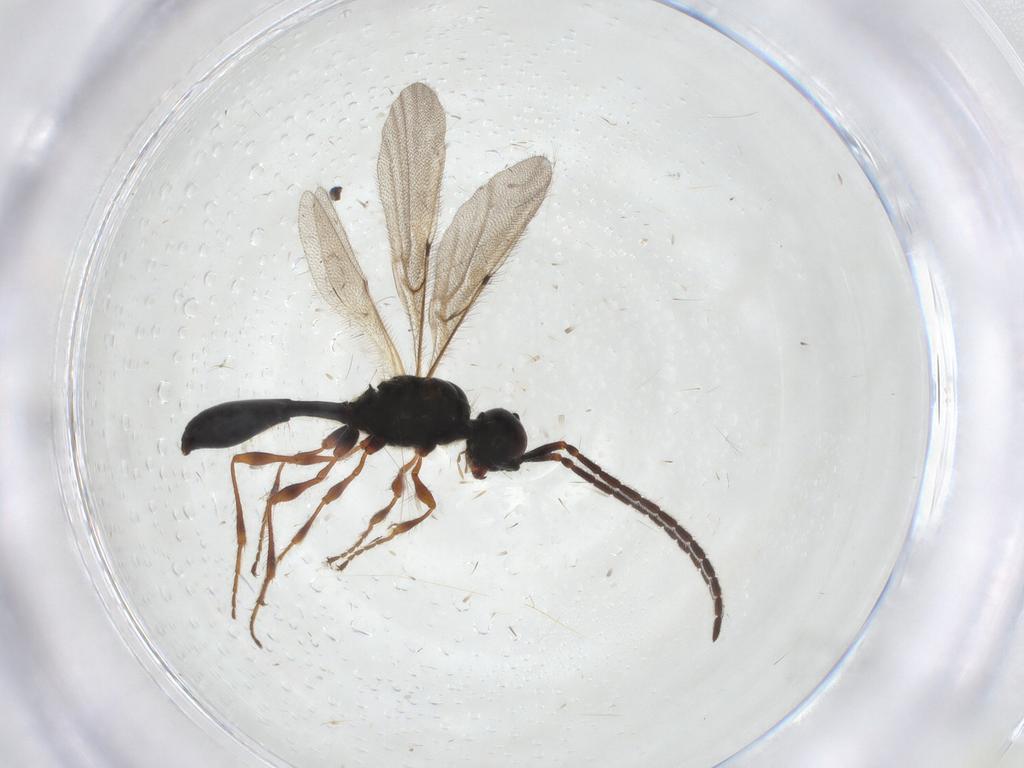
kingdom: Animalia
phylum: Arthropoda
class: Insecta
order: Hymenoptera
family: Diapriidae
